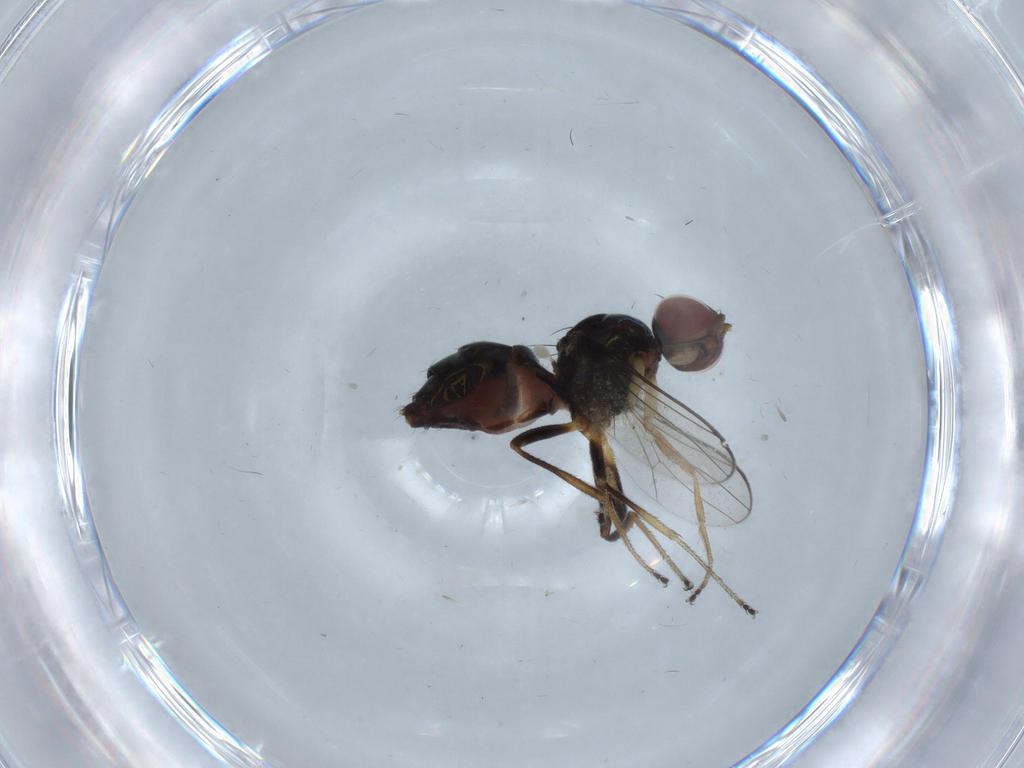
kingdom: Animalia
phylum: Arthropoda
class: Insecta
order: Diptera
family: Sepsidae
